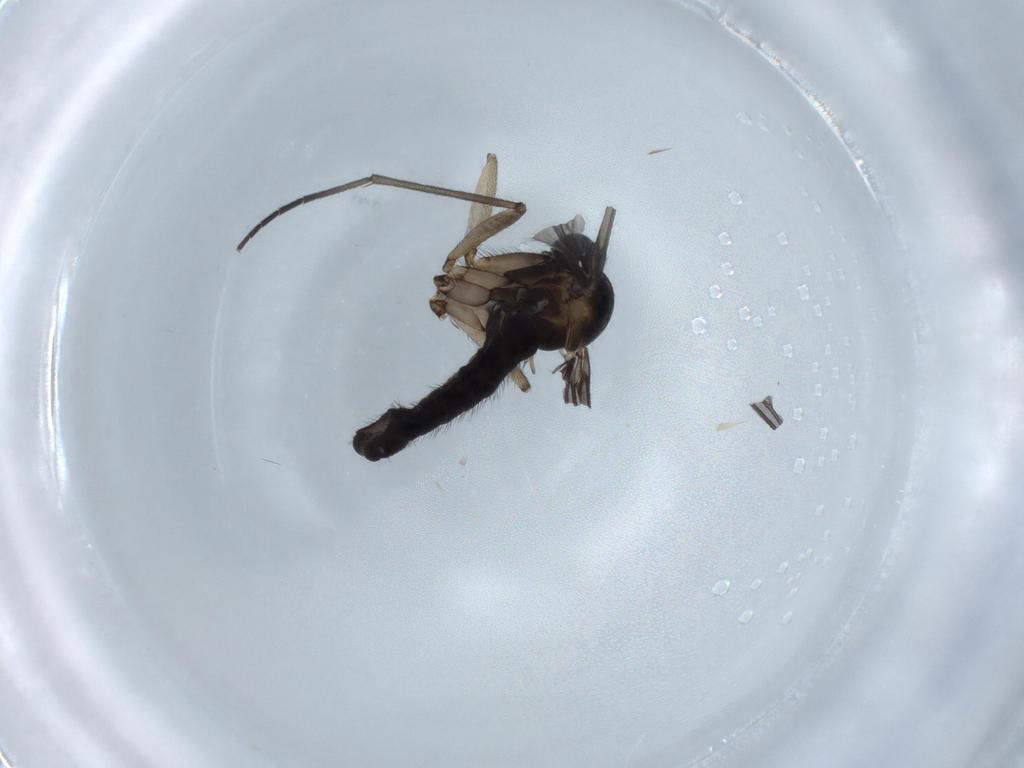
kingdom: Animalia
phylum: Arthropoda
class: Insecta
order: Diptera
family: Sciaridae
